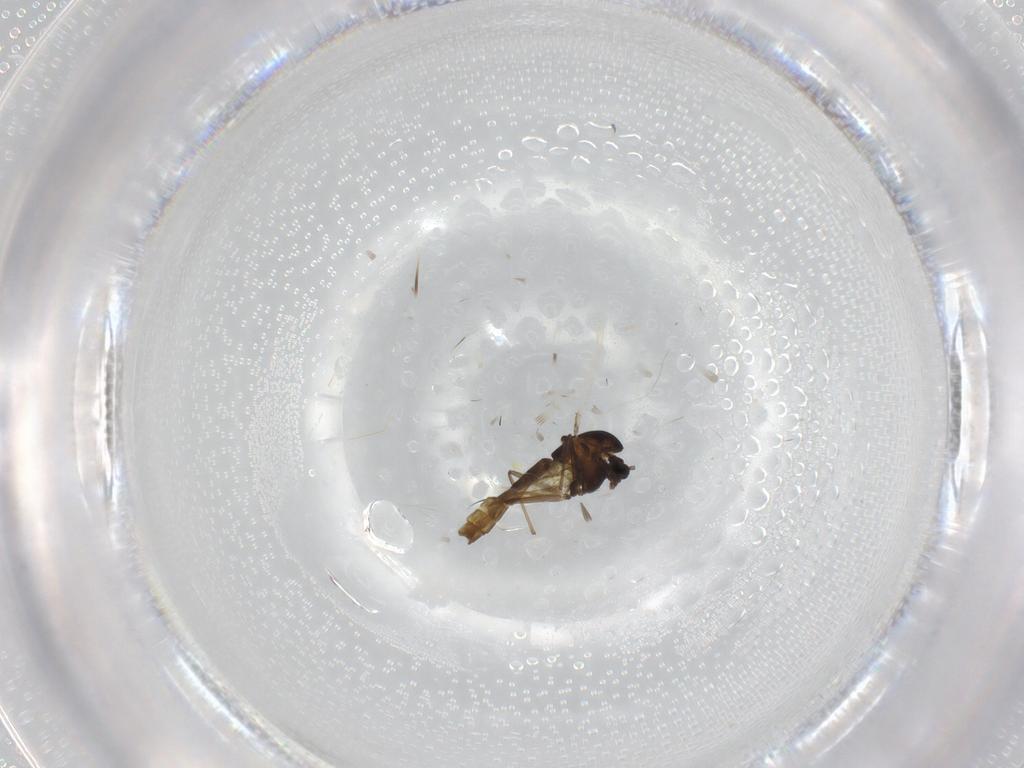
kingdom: Animalia
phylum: Arthropoda
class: Insecta
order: Diptera
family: Chironomidae
